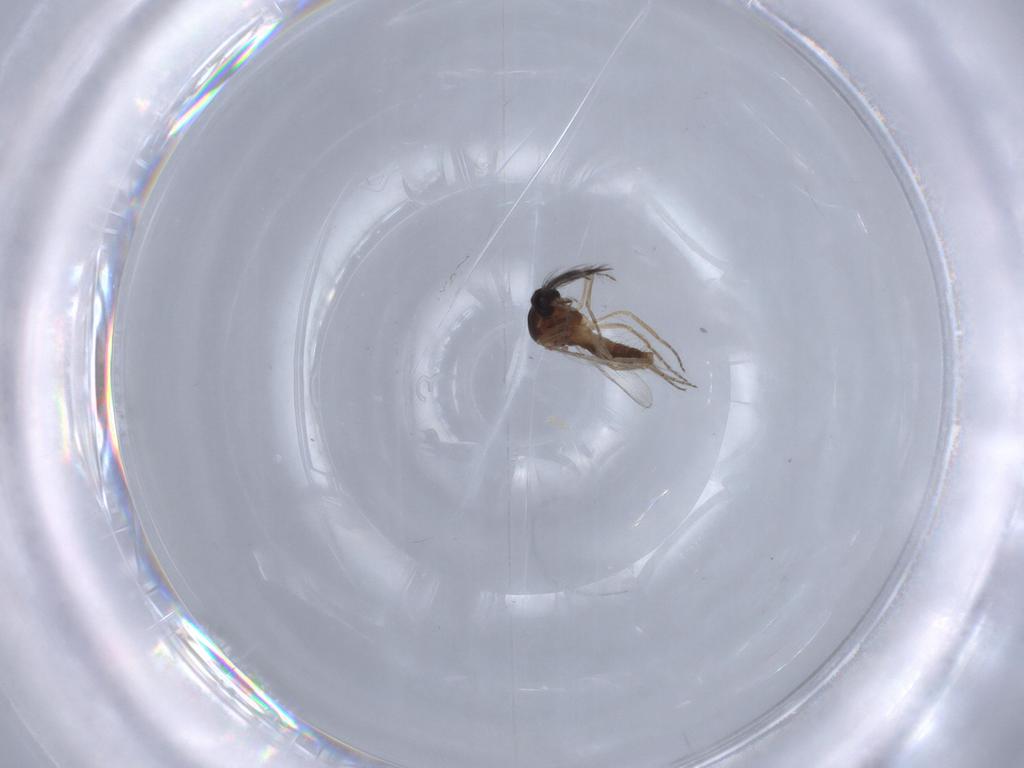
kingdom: Animalia
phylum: Arthropoda
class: Insecta
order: Diptera
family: Ceratopogonidae
